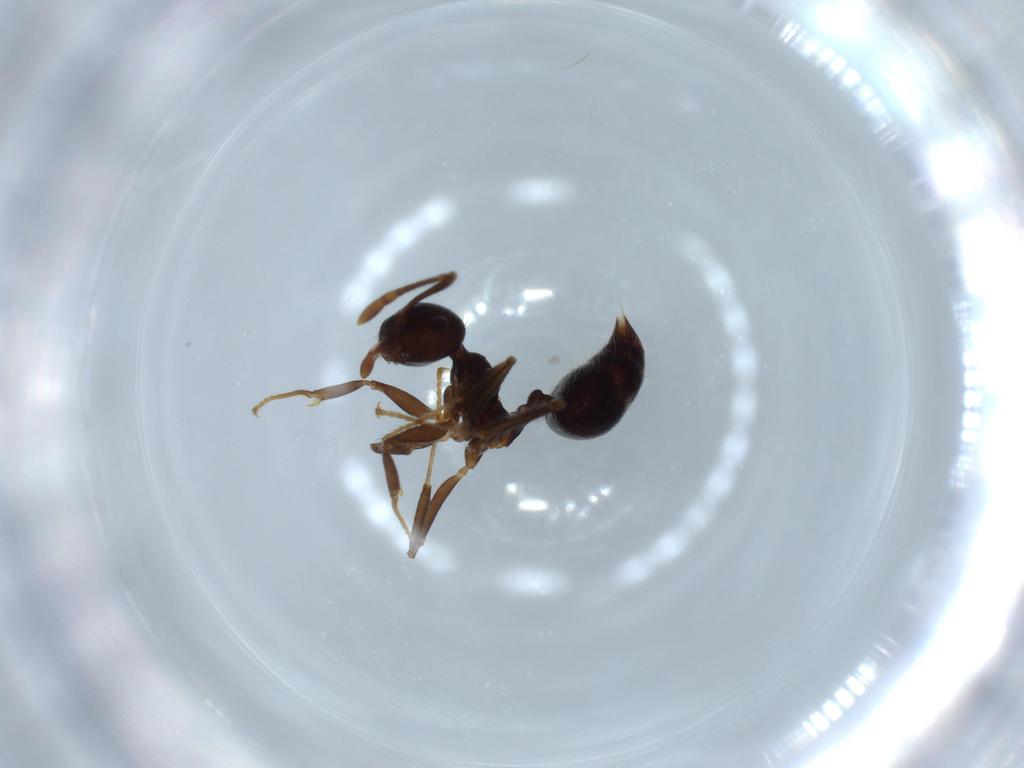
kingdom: Animalia
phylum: Arthropoda
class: Insecta
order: Hymenoptera
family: Formicidae
